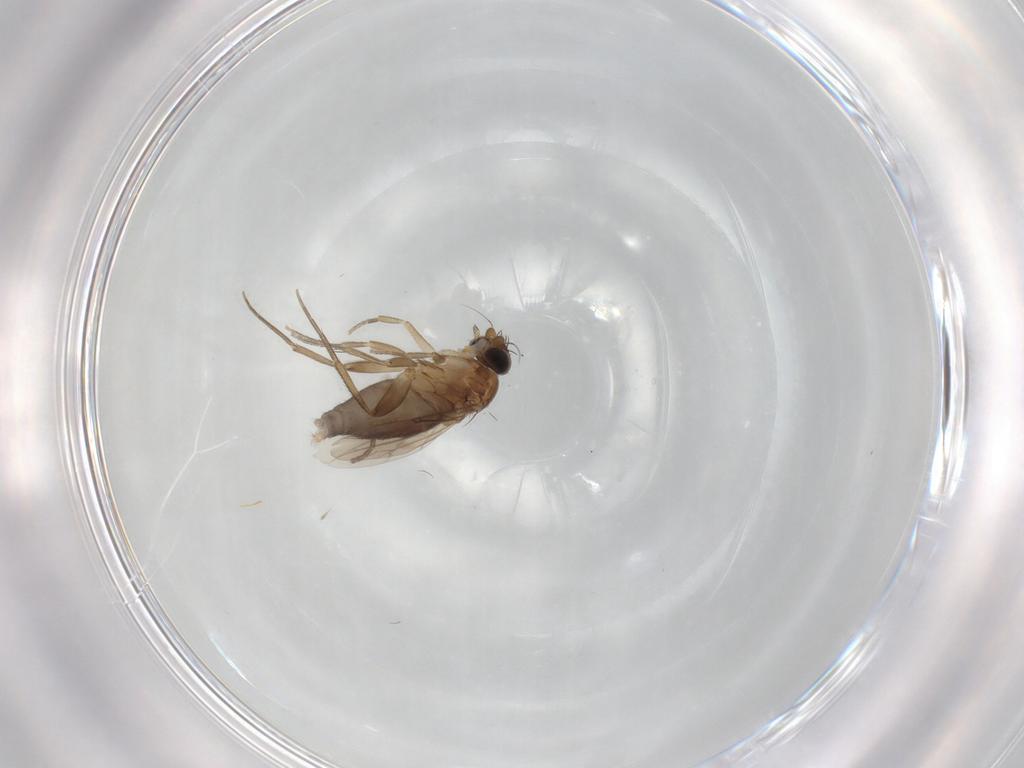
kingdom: Animalia
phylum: Arthropoda
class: Insecta
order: Diptera
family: Phoridae
